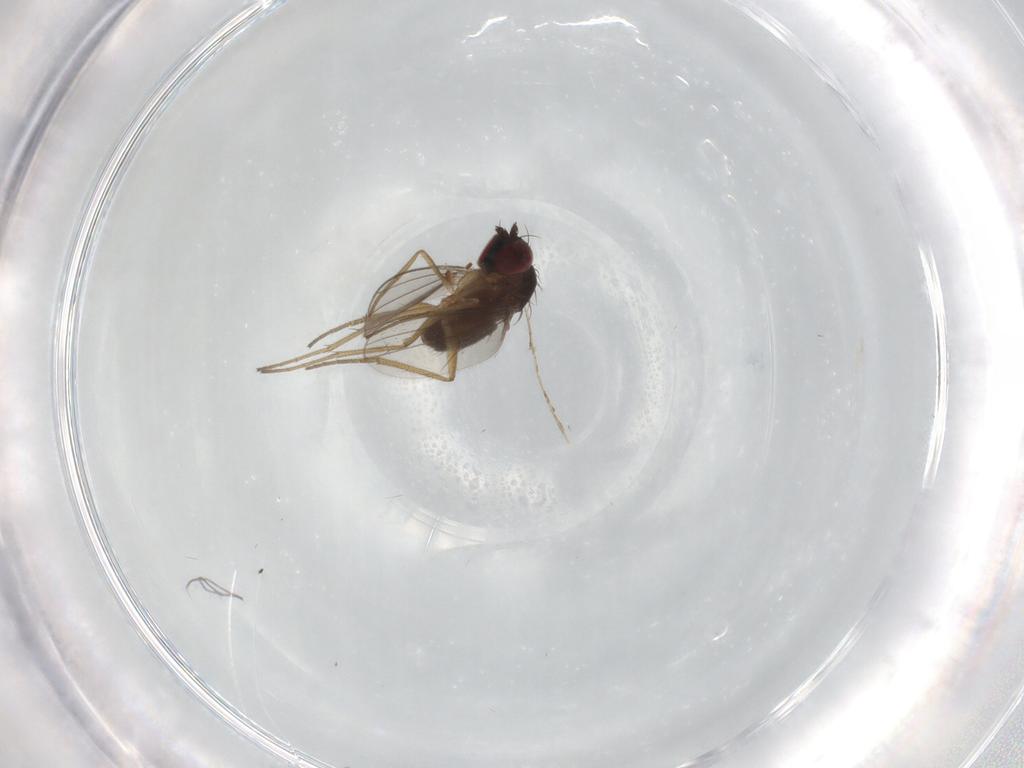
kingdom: Animalia
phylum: Arthropoda
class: Insecta
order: Diptera
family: Dolichopodidae
